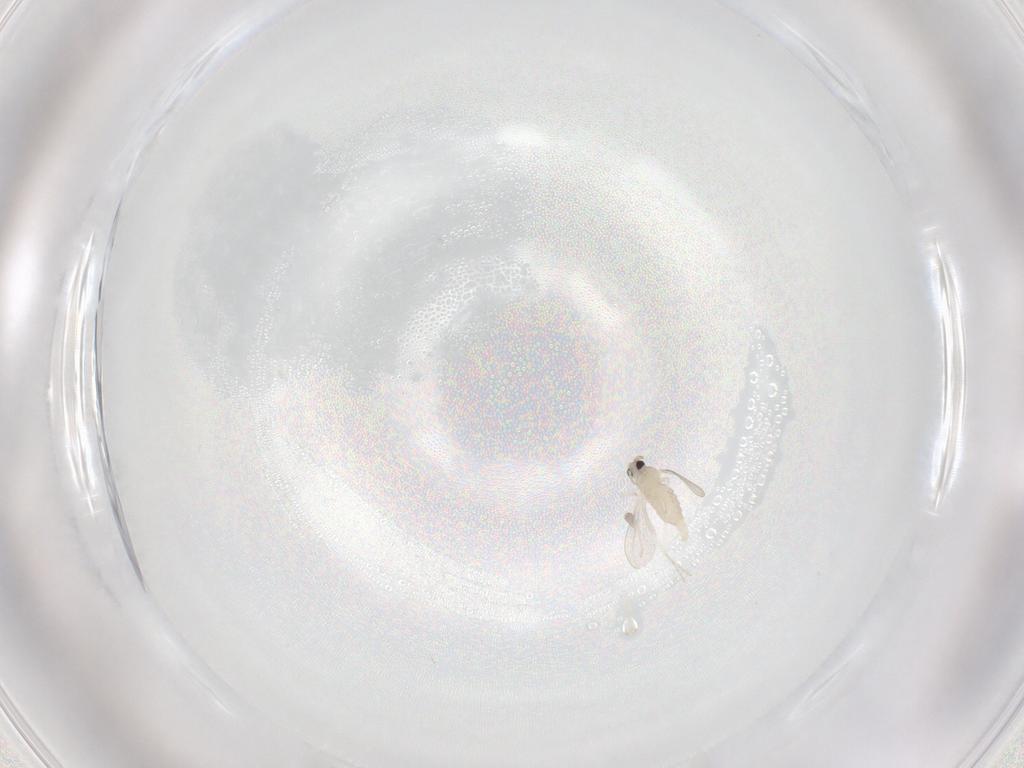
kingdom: Animalia
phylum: Arthropoda
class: Insecta
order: Diptera
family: Cecidomyiidae
